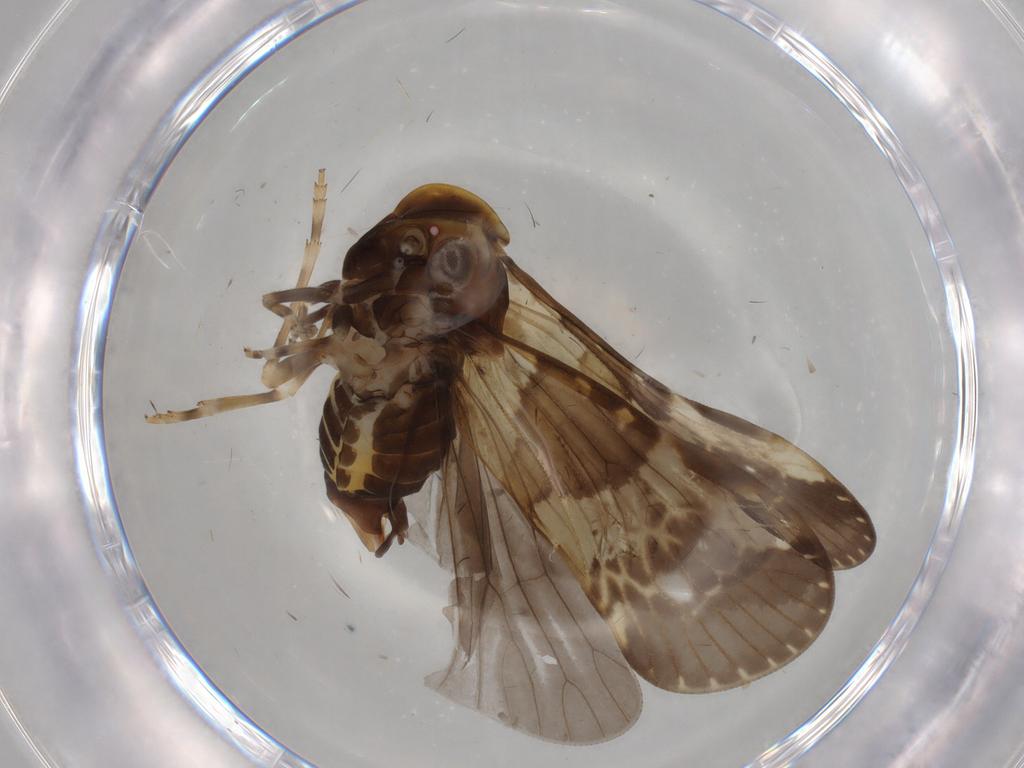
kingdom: Animalia
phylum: Arthropoda
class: Insecta
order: Hemiptera
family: Cixiidae
